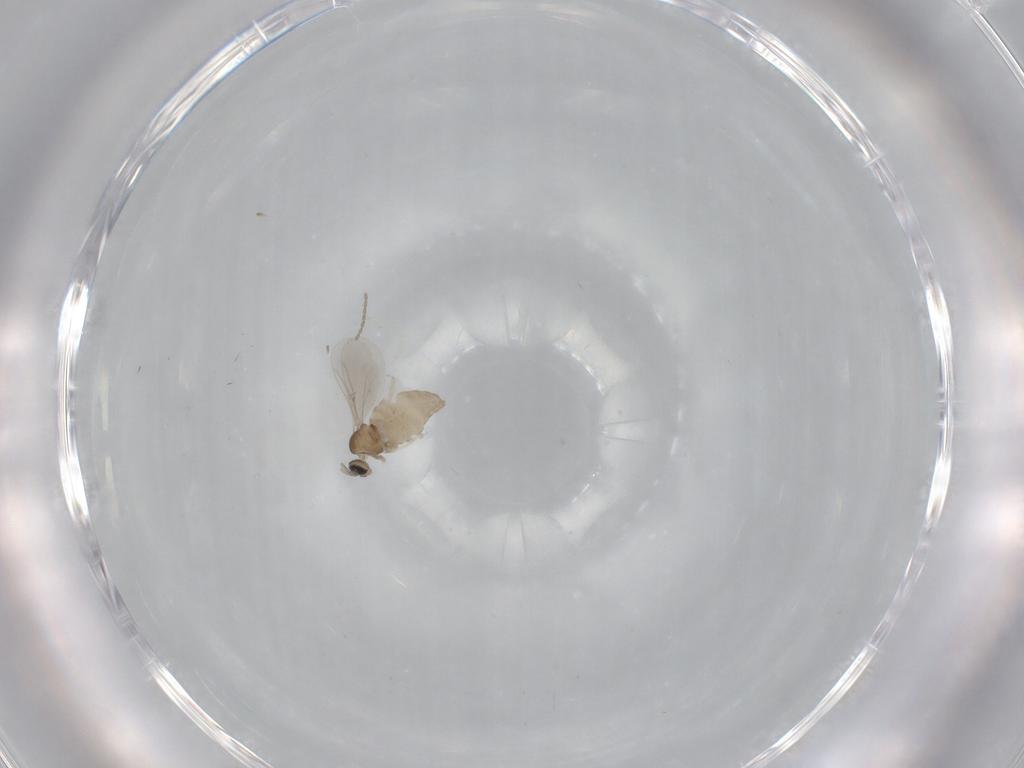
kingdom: Animalia
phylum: Arthropoda
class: Insecta
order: Diptera
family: Cecidomyiidae
